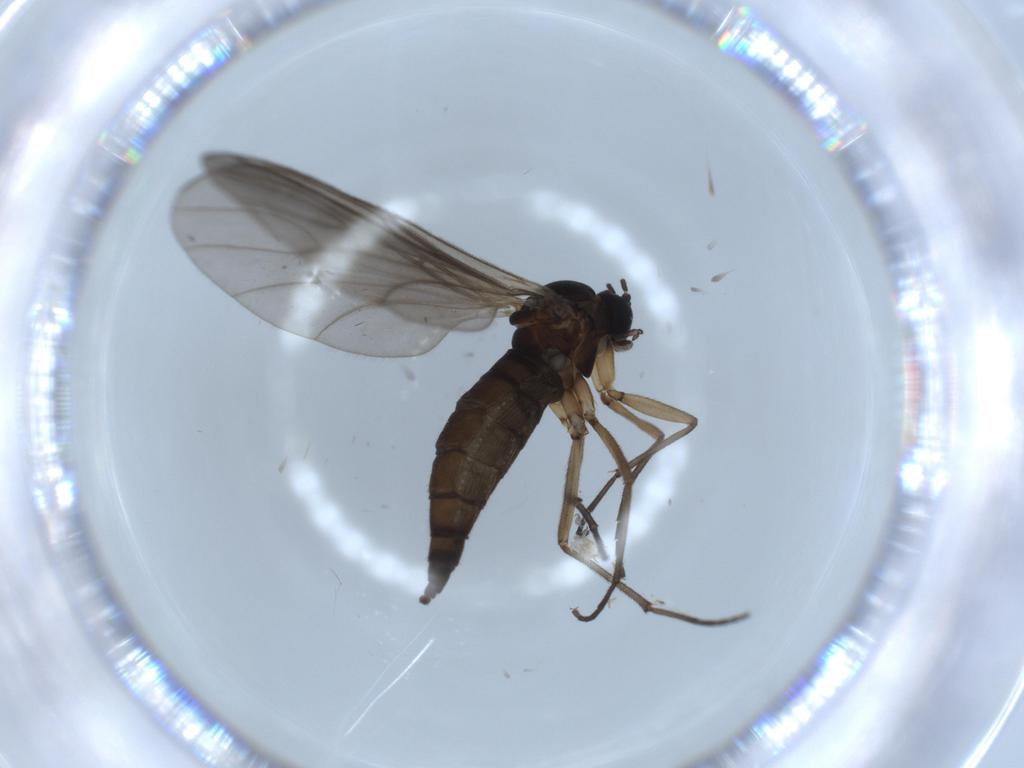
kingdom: Animalia
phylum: Arthropoda
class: Insecta
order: Diptera
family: Sciaridae
